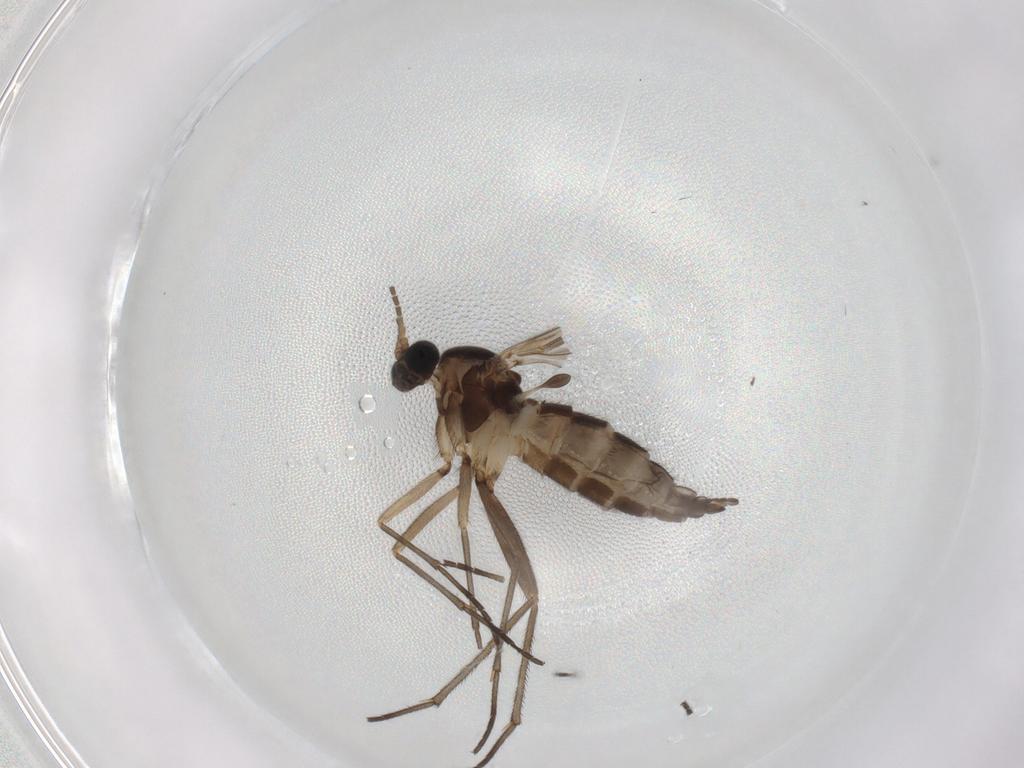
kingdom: Animalia
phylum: Arthropoda
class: Insecta
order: Diptera
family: Sciaridae
